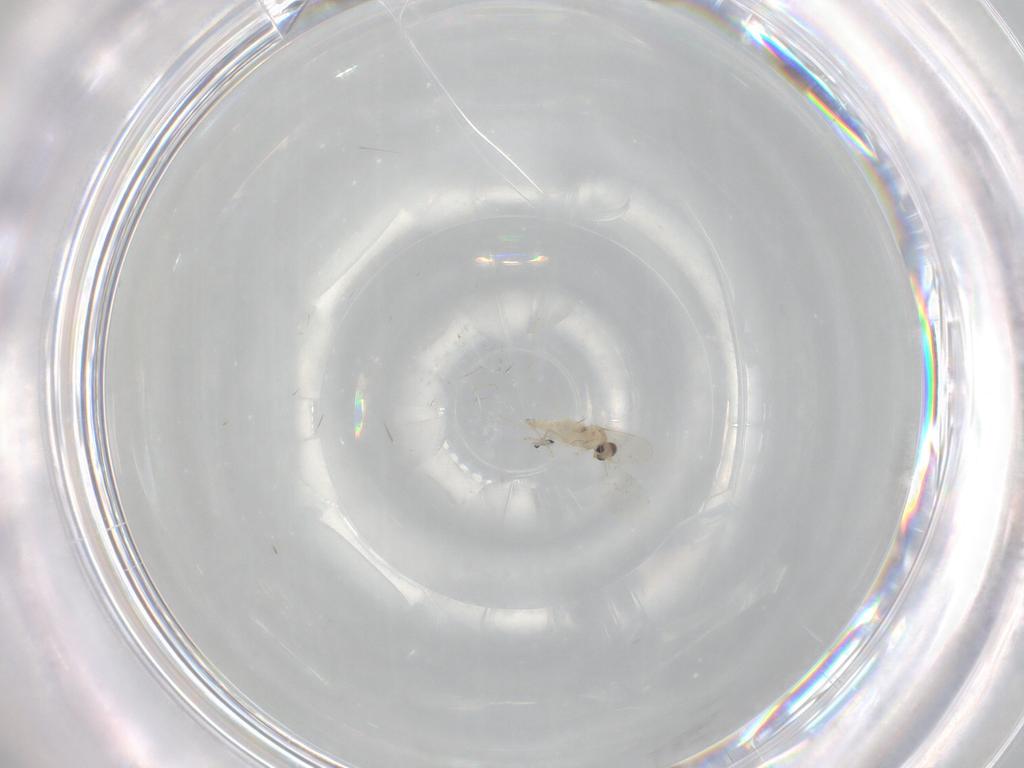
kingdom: Animalia
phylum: Arthropoda
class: Insecta
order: Diptera
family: Cecidomyiidae
